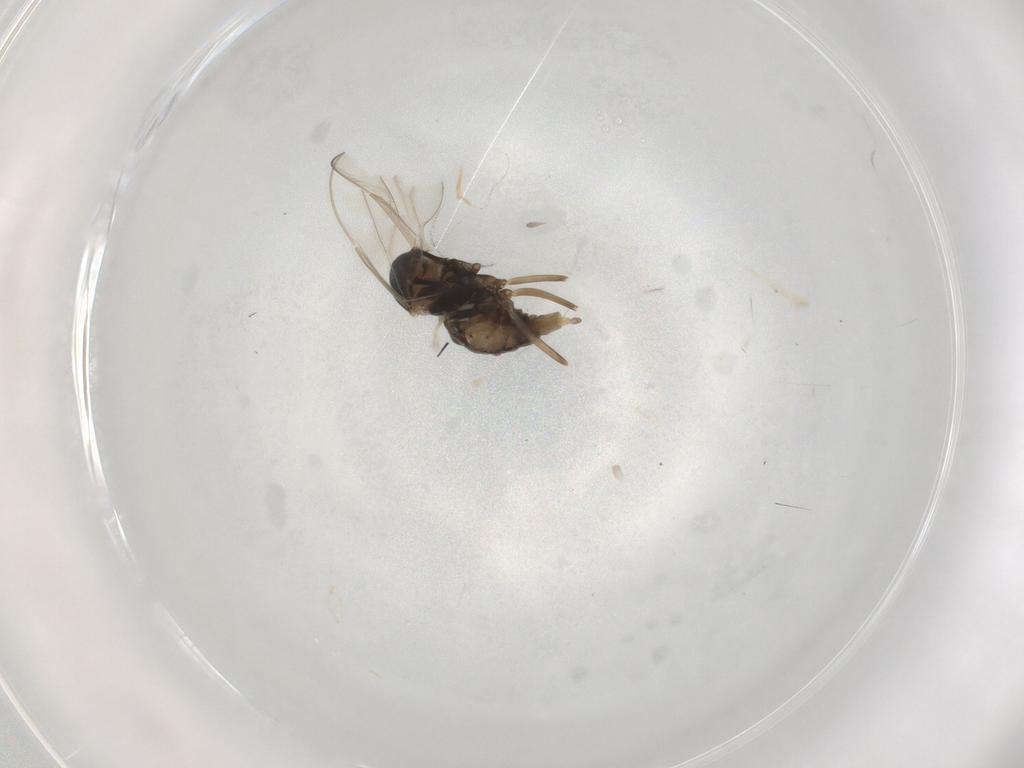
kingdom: Animalia
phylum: Arthropoda
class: Insecta
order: Diptera
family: Cecidomyiidae
